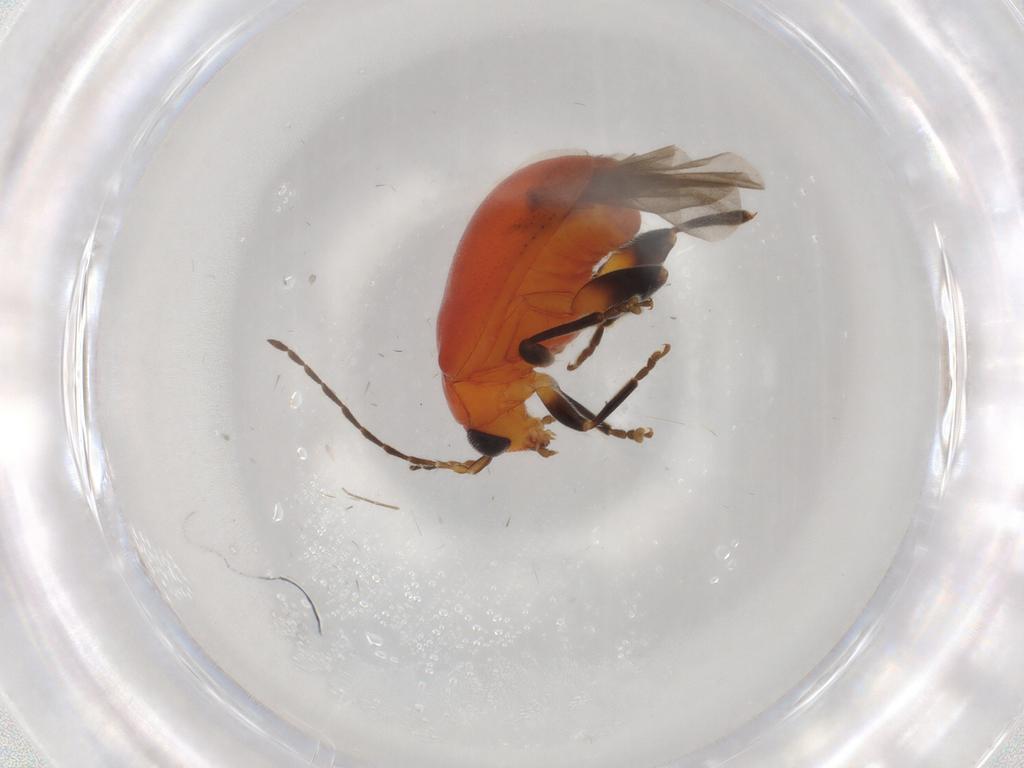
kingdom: Animalia
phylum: Arthropoda
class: Insecta
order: Coleoptera
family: Chrysomelidae
